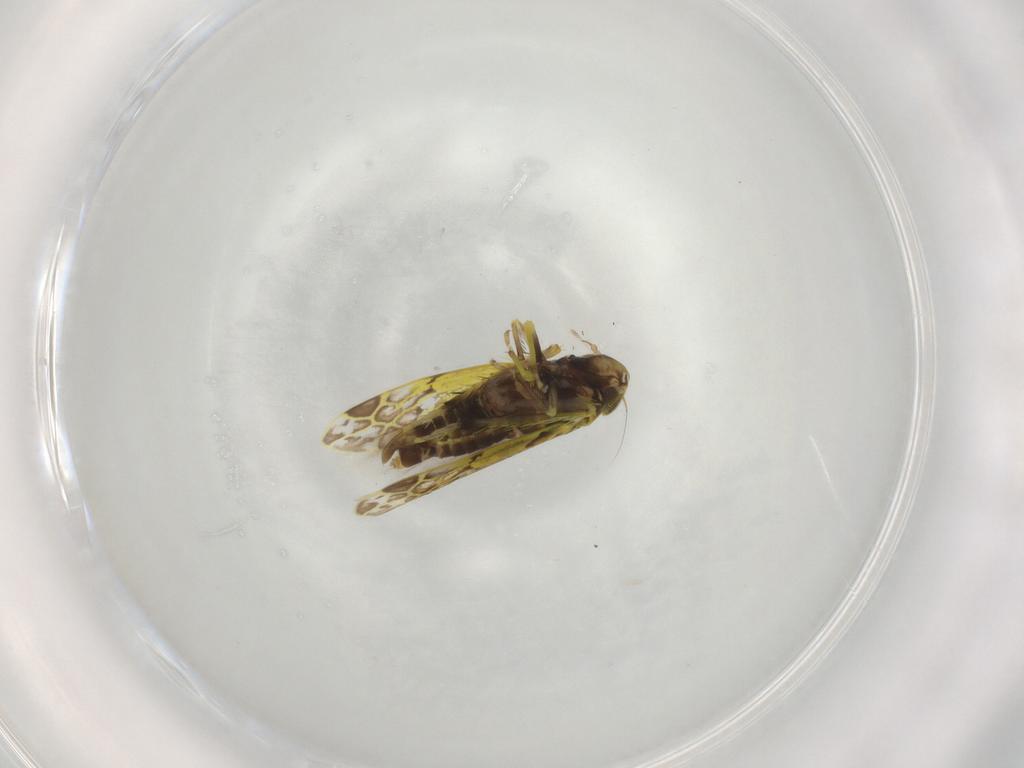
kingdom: Animalia
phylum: Arthropoda
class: Insecta
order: Hemiptera
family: Cicadellidae
